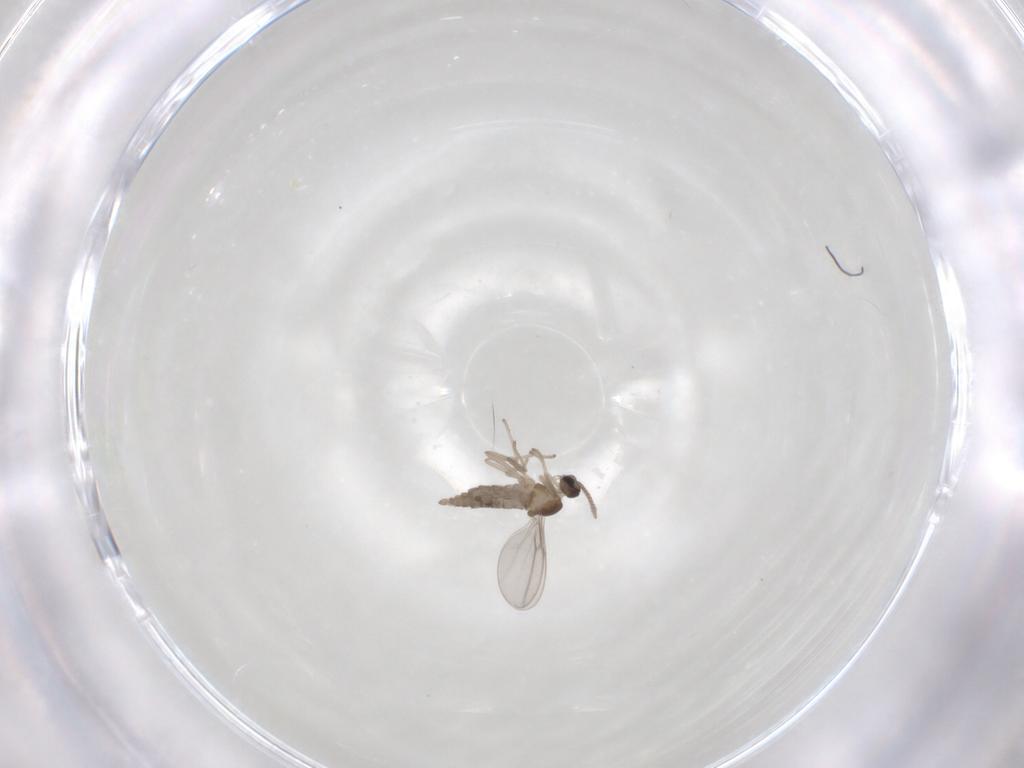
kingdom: Animalia
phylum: Arthropoda
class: Insecta
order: Diptera
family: Cecidomyiidae
